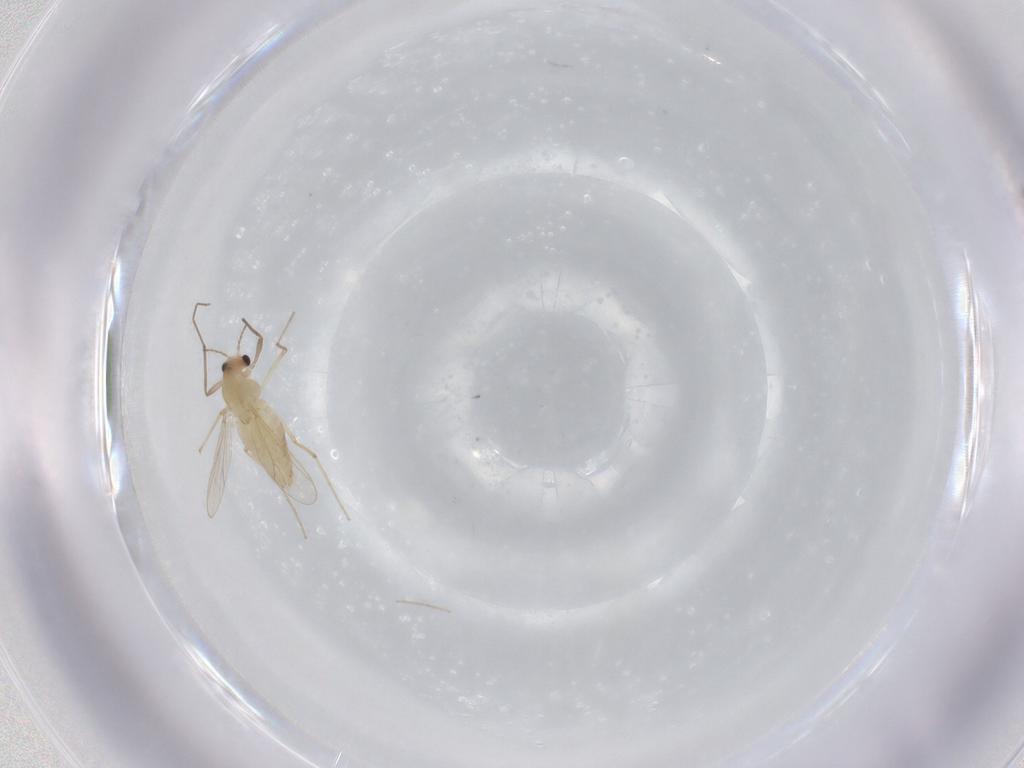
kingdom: Animalia
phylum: Arthropoda
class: Insecta
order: Diptera
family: Chironomidae
